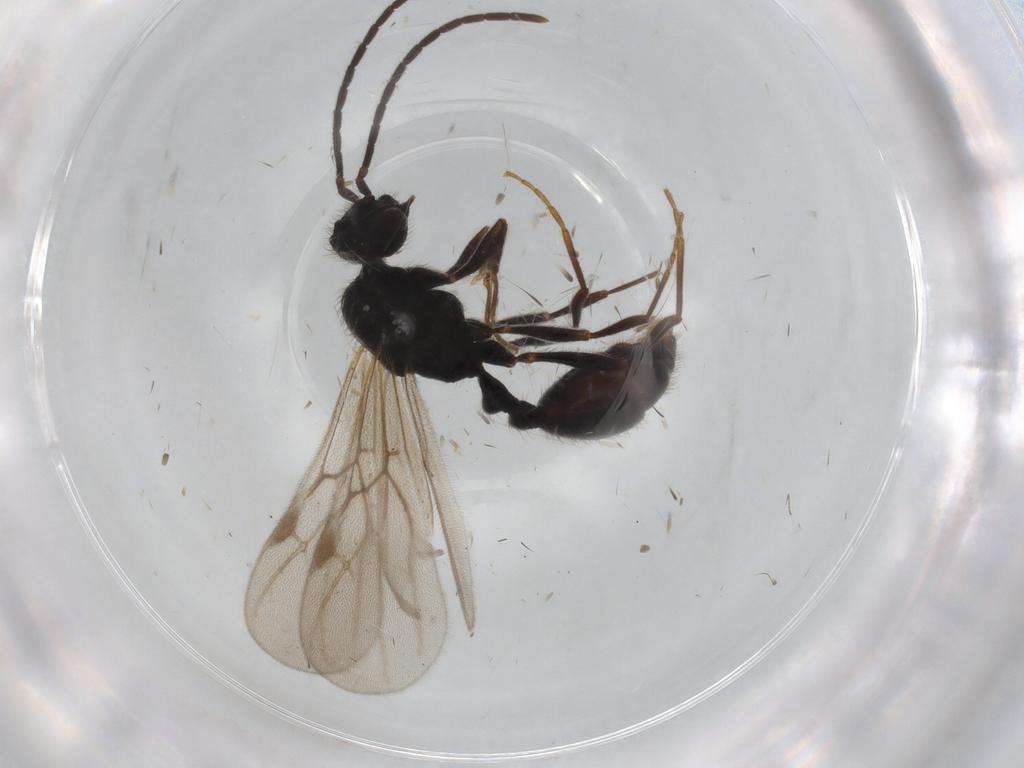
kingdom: Animalia
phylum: Arthropoda
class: Insecta
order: Hymenoptera
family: Formicidae
